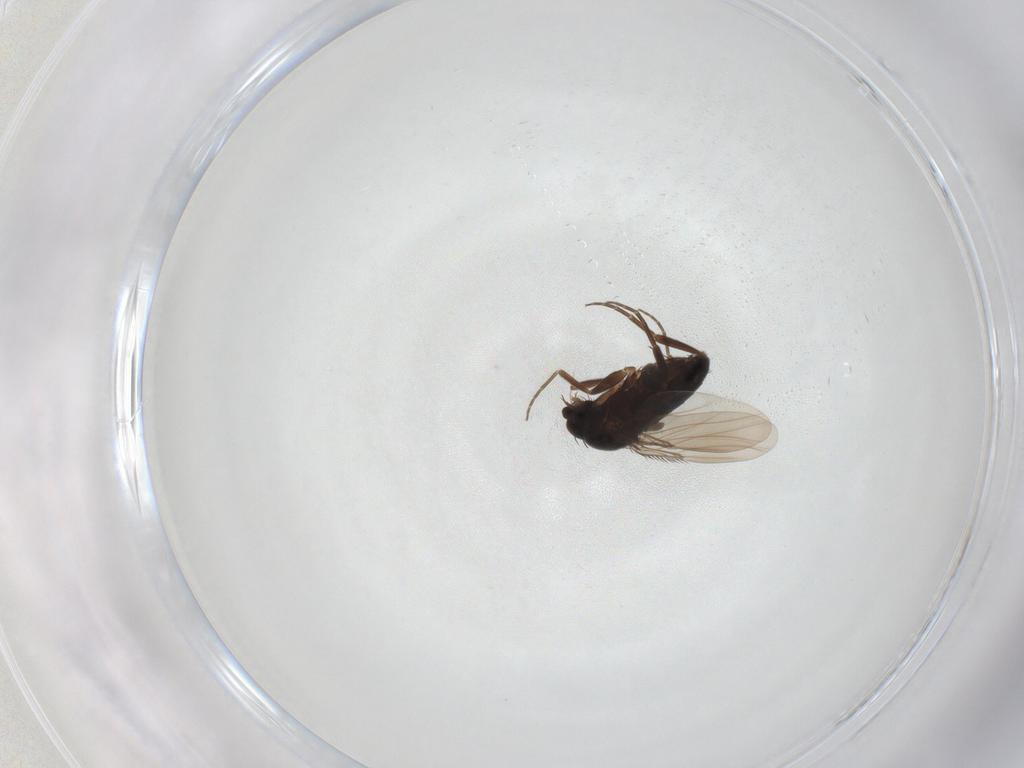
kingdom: Animalia
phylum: Arthropoda
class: Insecta
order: Diptera
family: Phoridae
